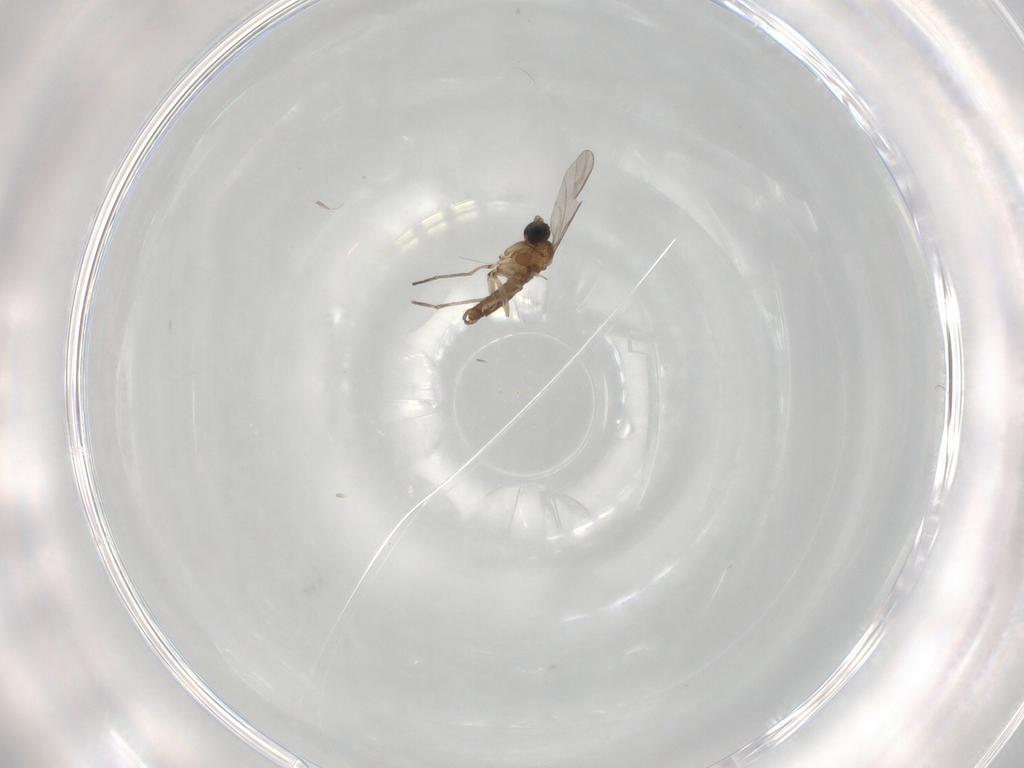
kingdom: Animalia
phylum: Arthropoda
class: Insecta
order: Diptera
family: Sciaridae
